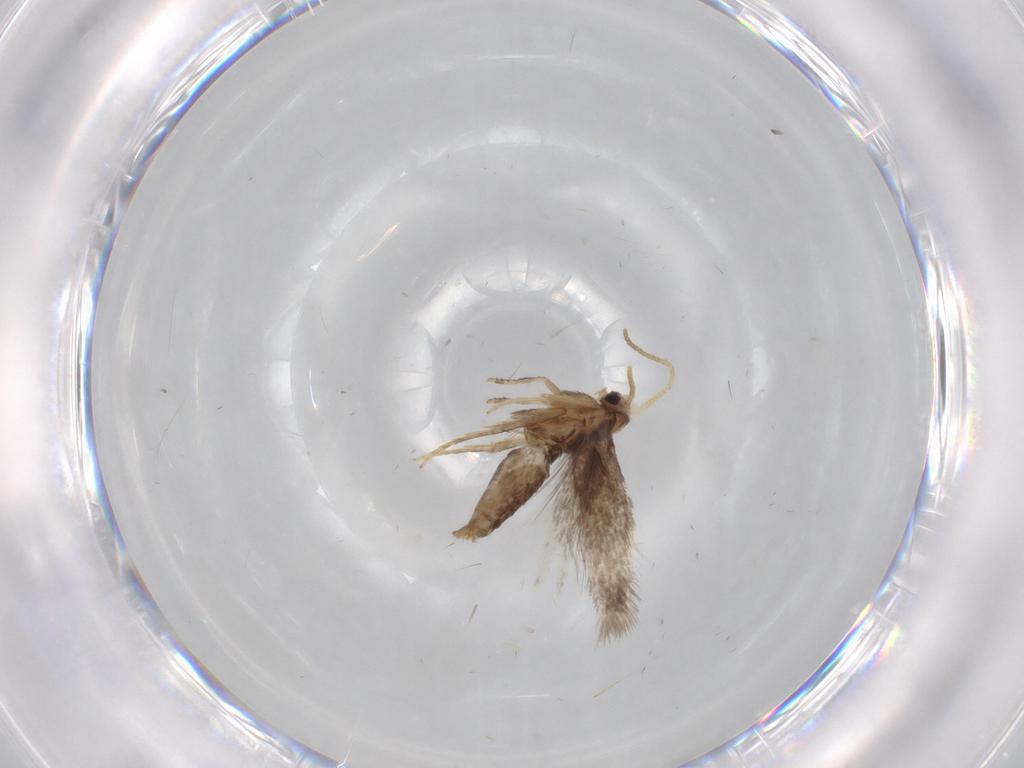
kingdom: Animalia
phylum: Arthropoda
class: Insecta
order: Lepidoptera
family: Nepticulidae
